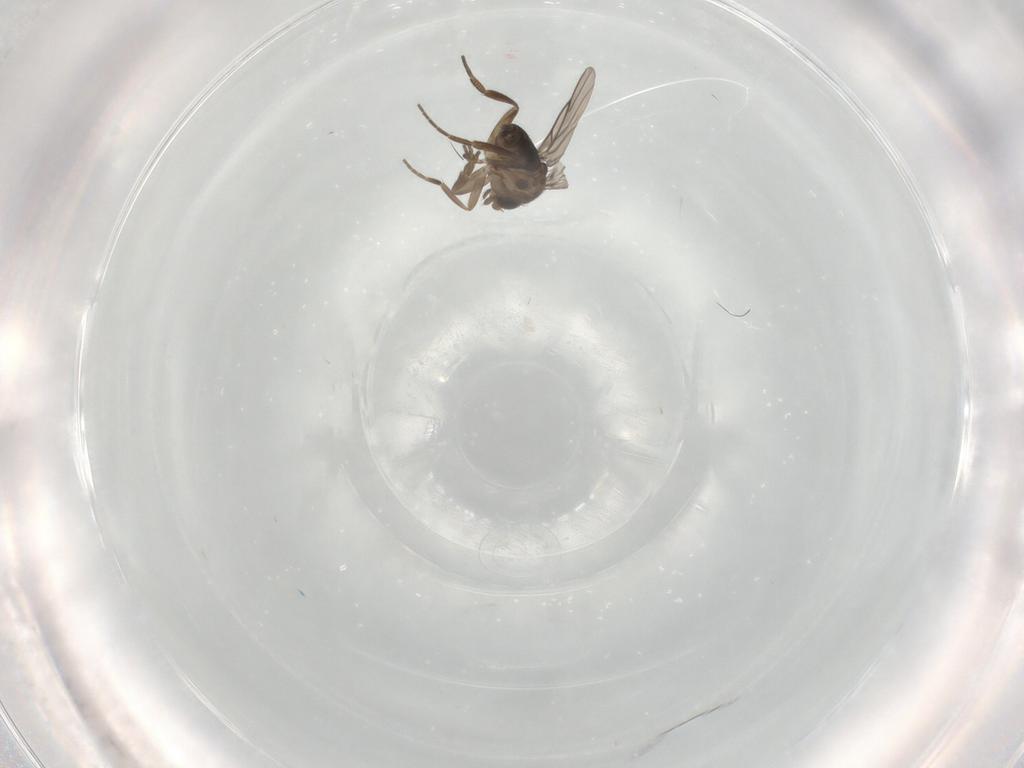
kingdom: Animalia
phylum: Arthropoda
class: Insecta
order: Diptera
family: Phoridae
